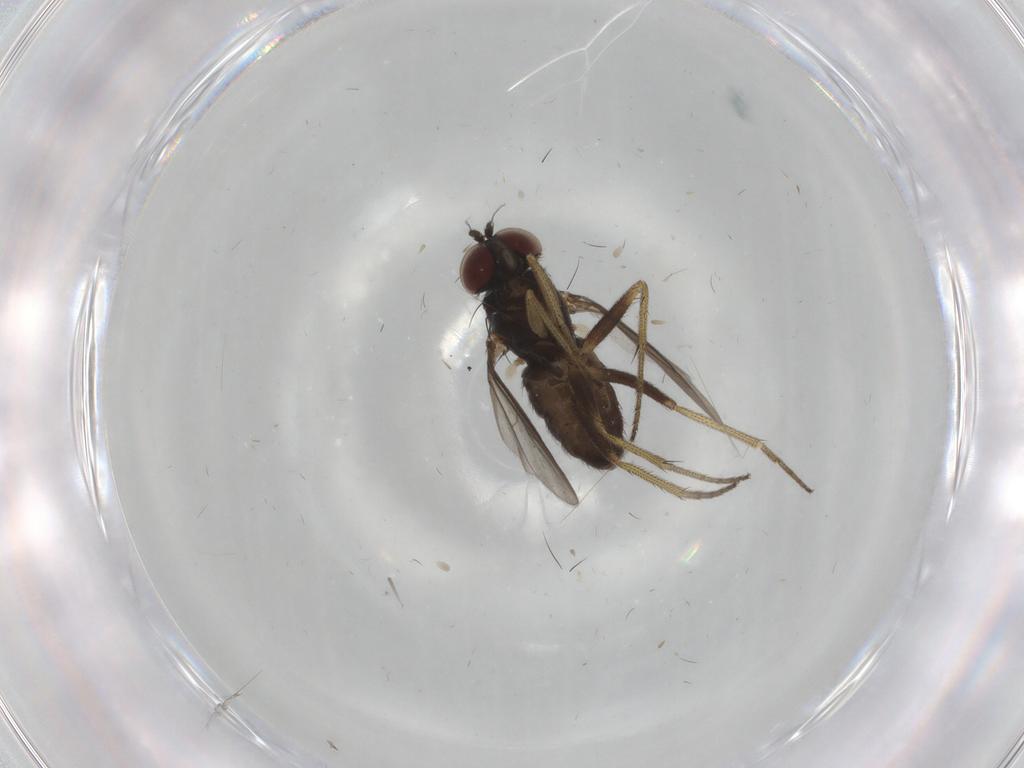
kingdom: Animalia
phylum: Arthropoda
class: Insecta
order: Diptera
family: Dolichopodidae
